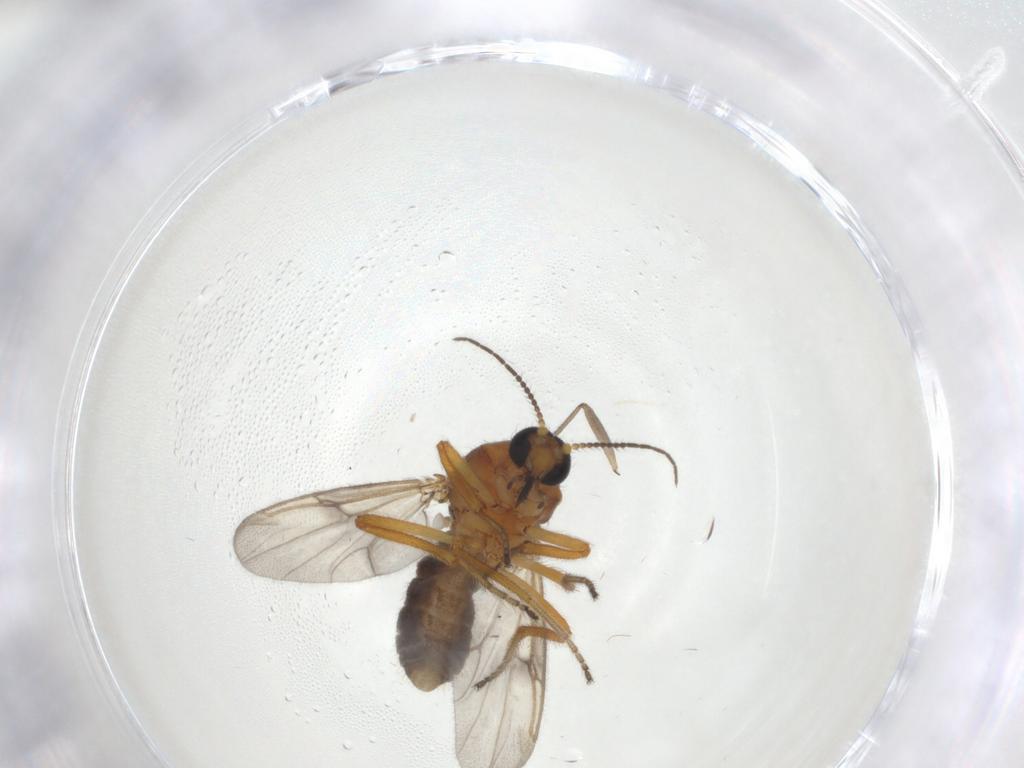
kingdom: Animalia
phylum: Arthropoda
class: Insecta
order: Diptera
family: Ceratopogonidae
